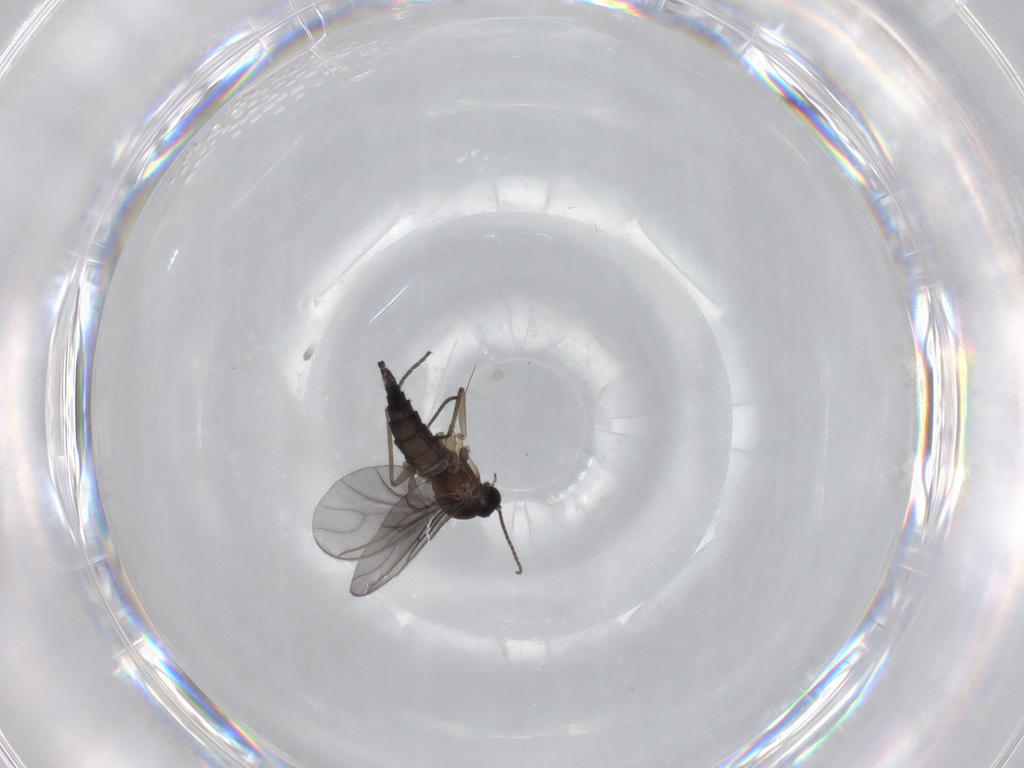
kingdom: Animalia
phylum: Arthropoda
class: Insecta
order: Diptera
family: Sciaridae
